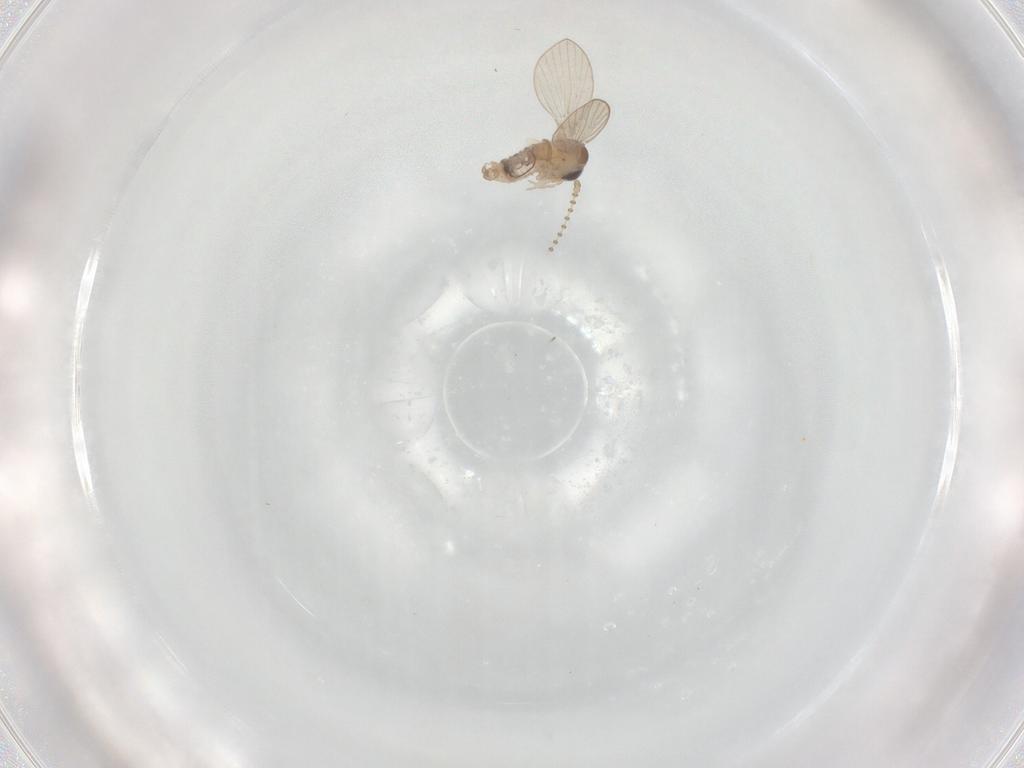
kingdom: Animalia
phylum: Arthropoda
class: Insecta
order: Diptera
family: Psychodidae
